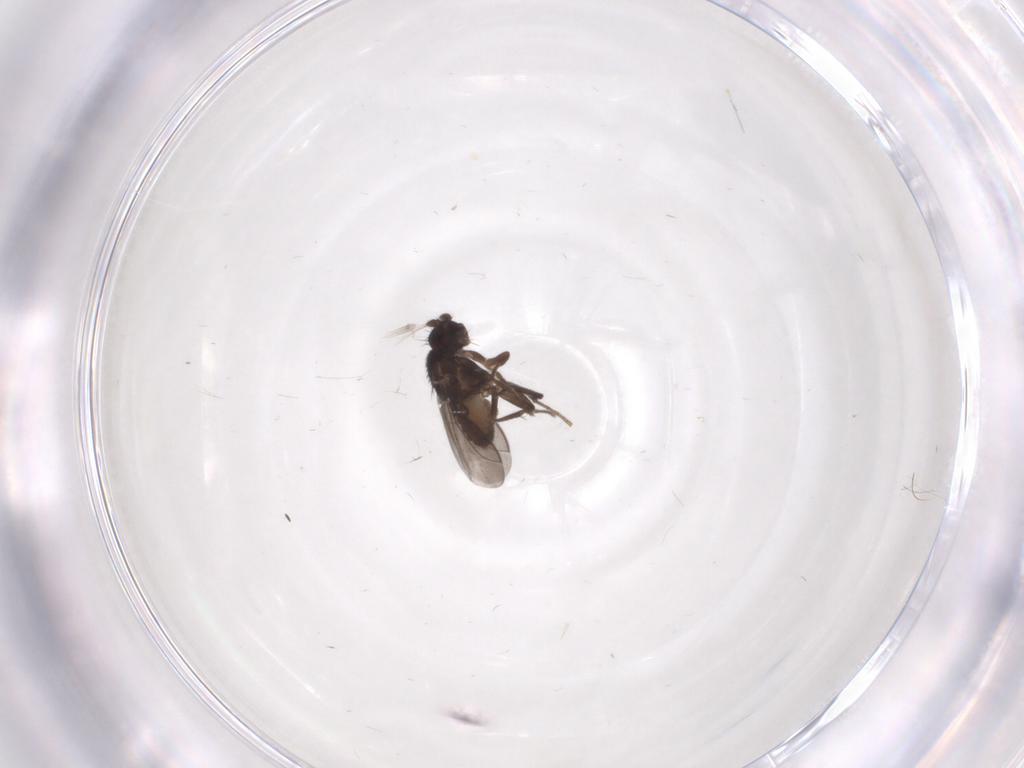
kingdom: Animalia
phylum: Arthropoda
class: Insecta
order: Diptera
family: Sphaeroceridae
